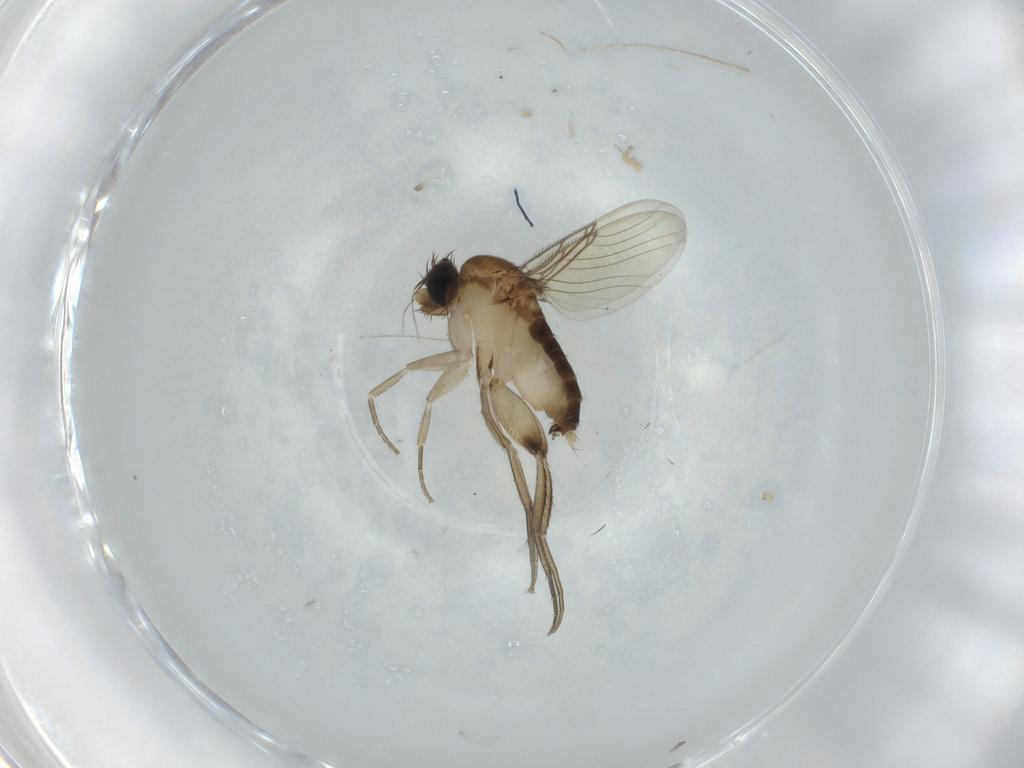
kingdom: Animalia
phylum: Arthropoda
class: Insecta
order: Diptera
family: Phoridae
